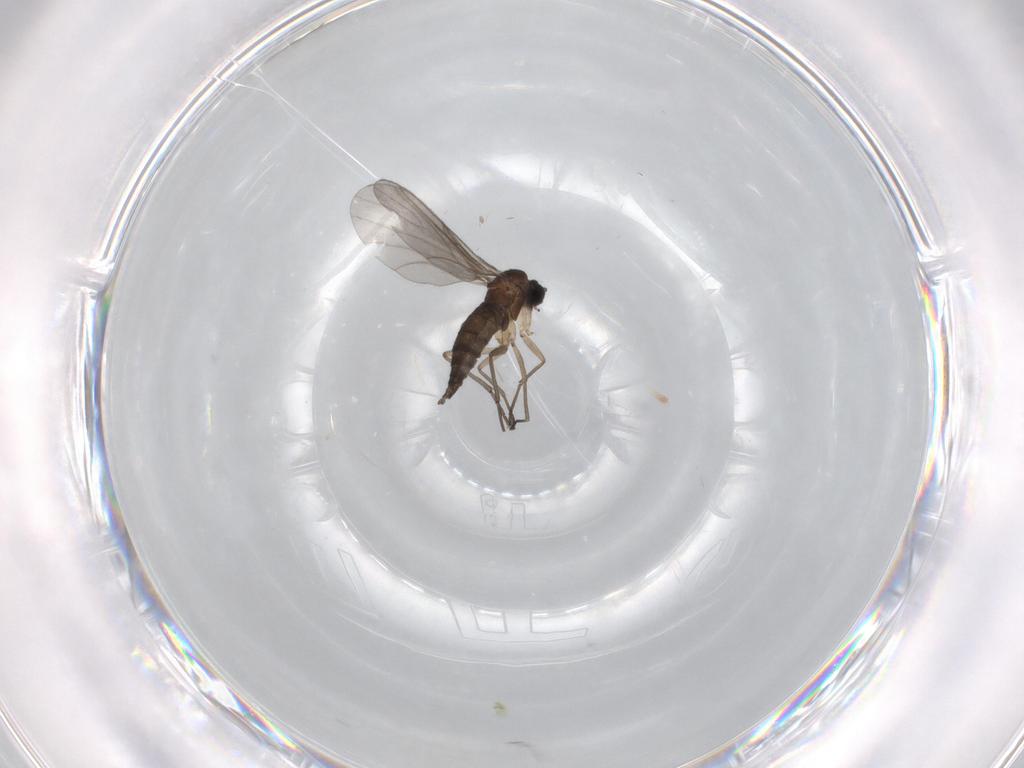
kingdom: Animalia
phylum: Arthropoda
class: Insecta
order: Diptera
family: Sciaridae
